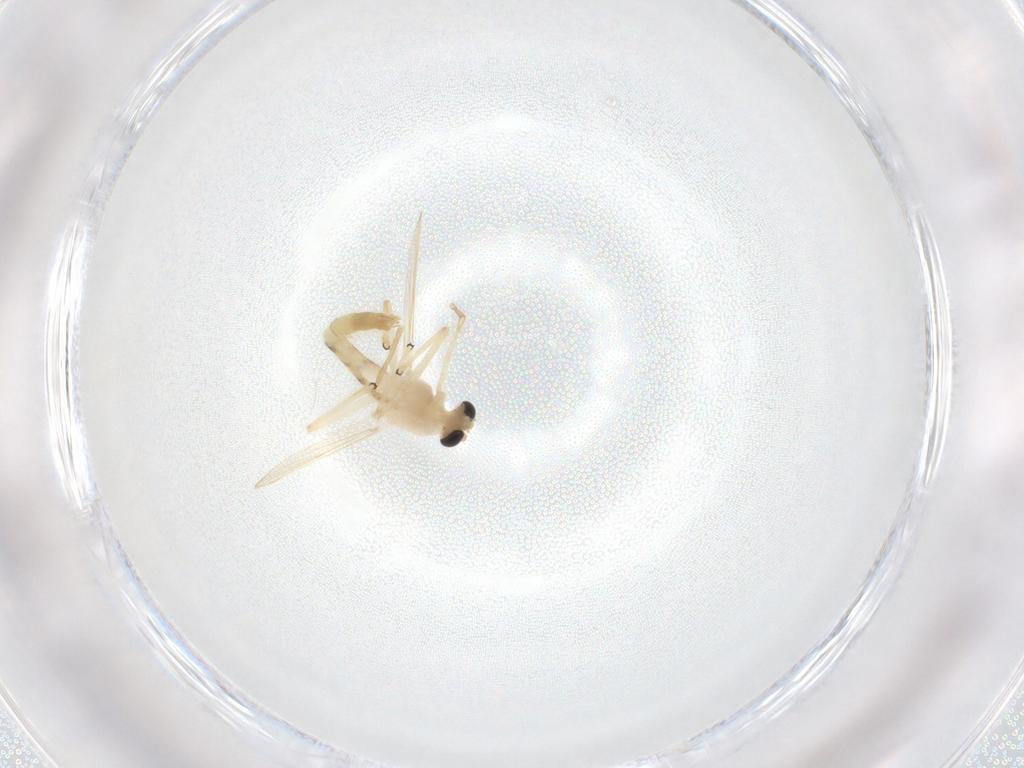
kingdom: Animalia
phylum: Arthropoda
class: Insecta
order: Diptera
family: Chironomidae
